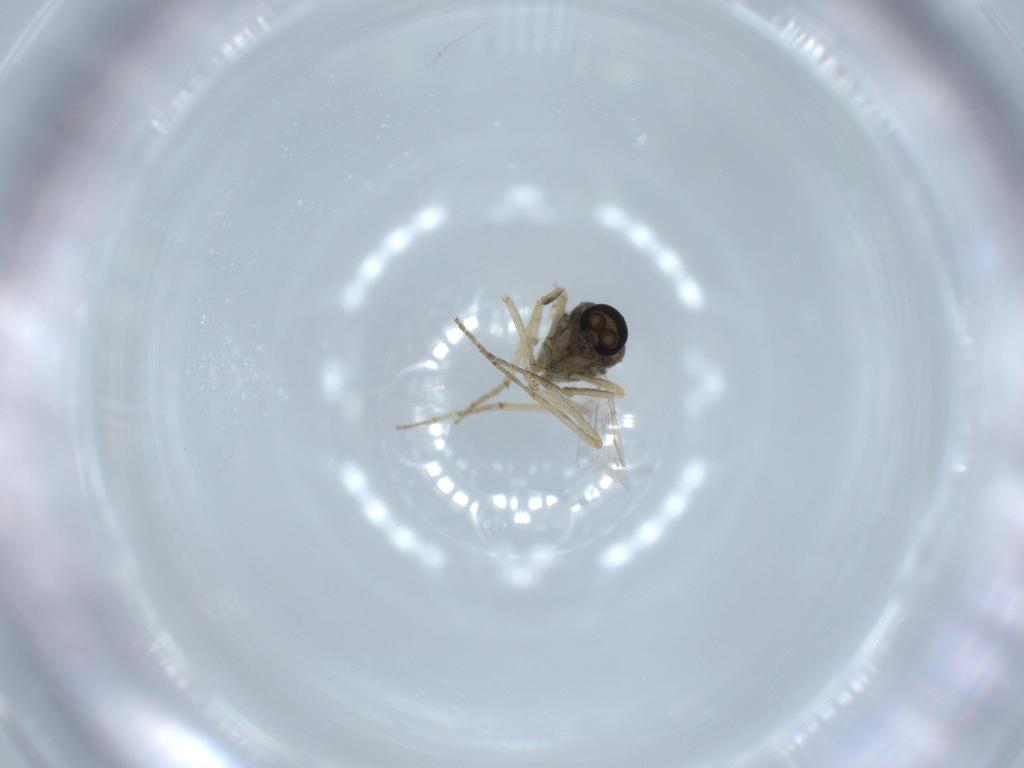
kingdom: Animalia
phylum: Arthropoda
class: Insecta
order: Diptera
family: Ceratopogonidae
